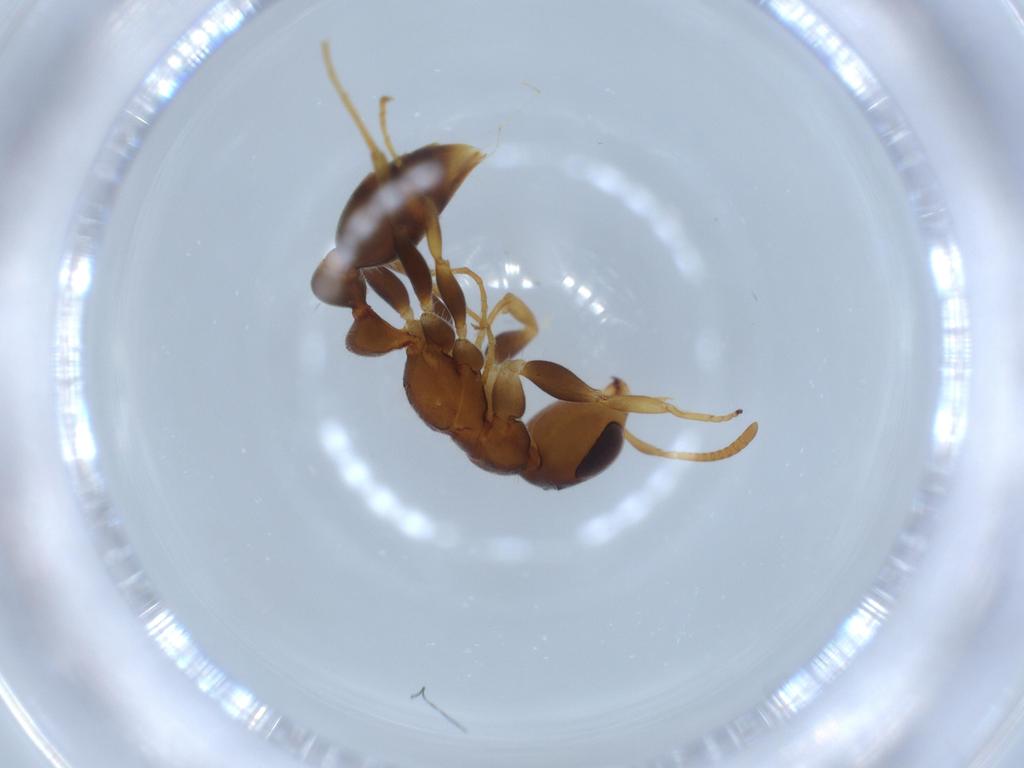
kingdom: Animalia
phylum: Arthropoda
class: Insecta
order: Hymenoptera
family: Formicidae
